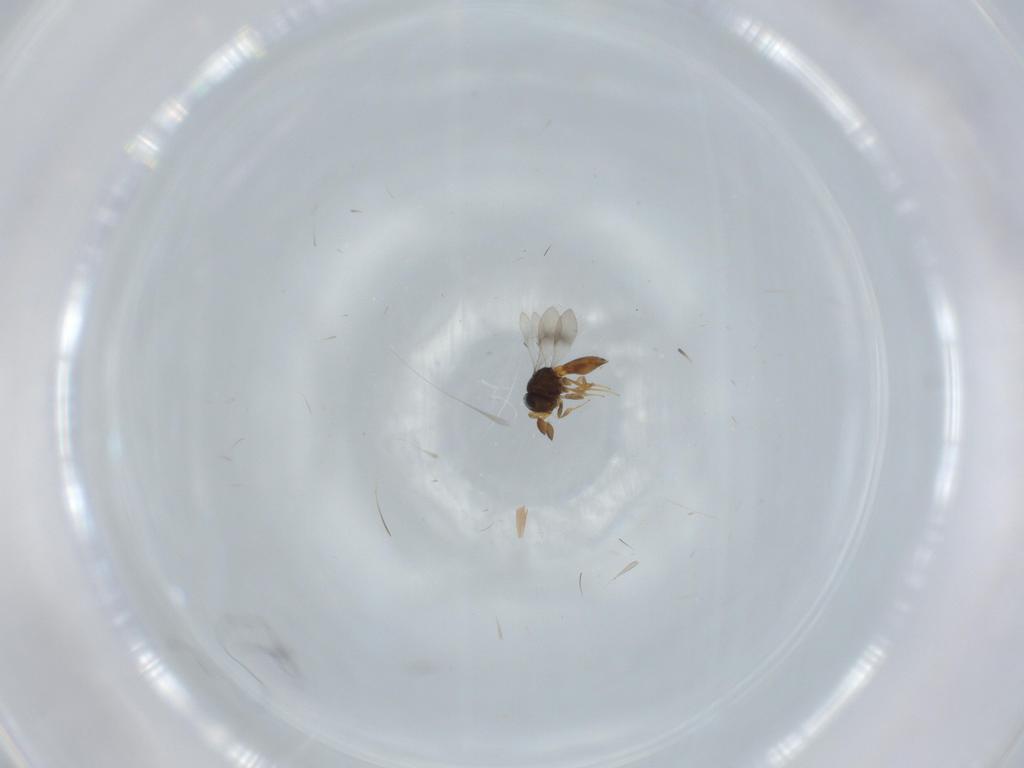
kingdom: Animalia
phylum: Arthropoda
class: Insecta
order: Hymenoptera
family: Scelionidae
